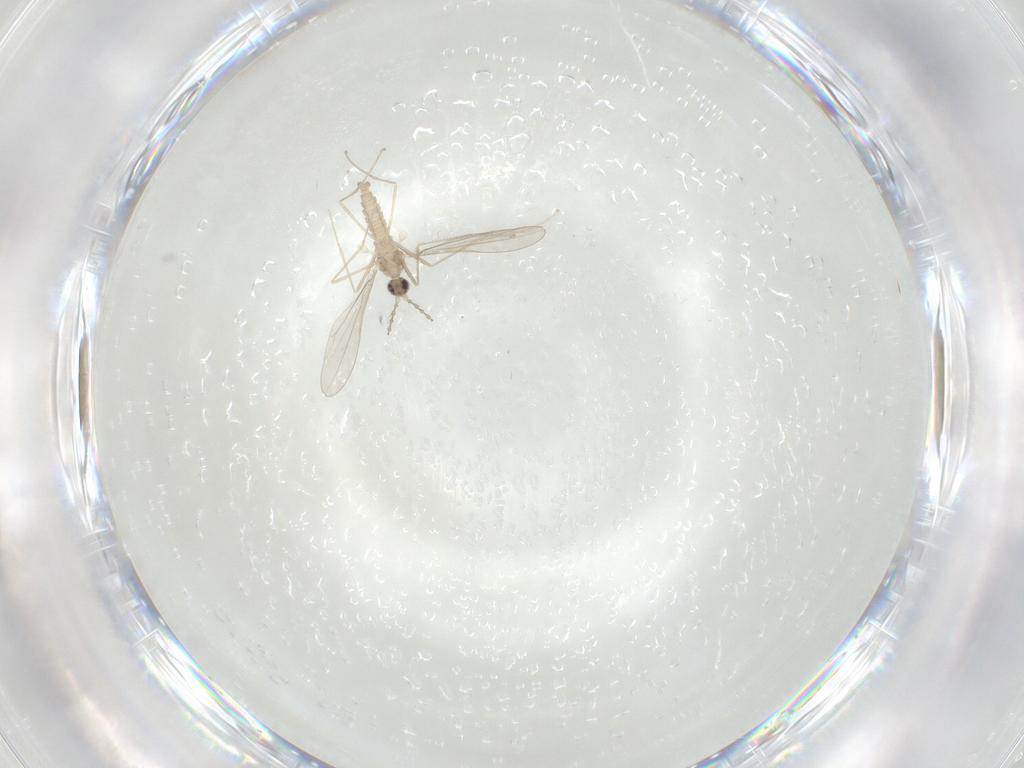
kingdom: Animalia
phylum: Arthropoda
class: Insecta
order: Diptera
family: Cecidomyiidae
